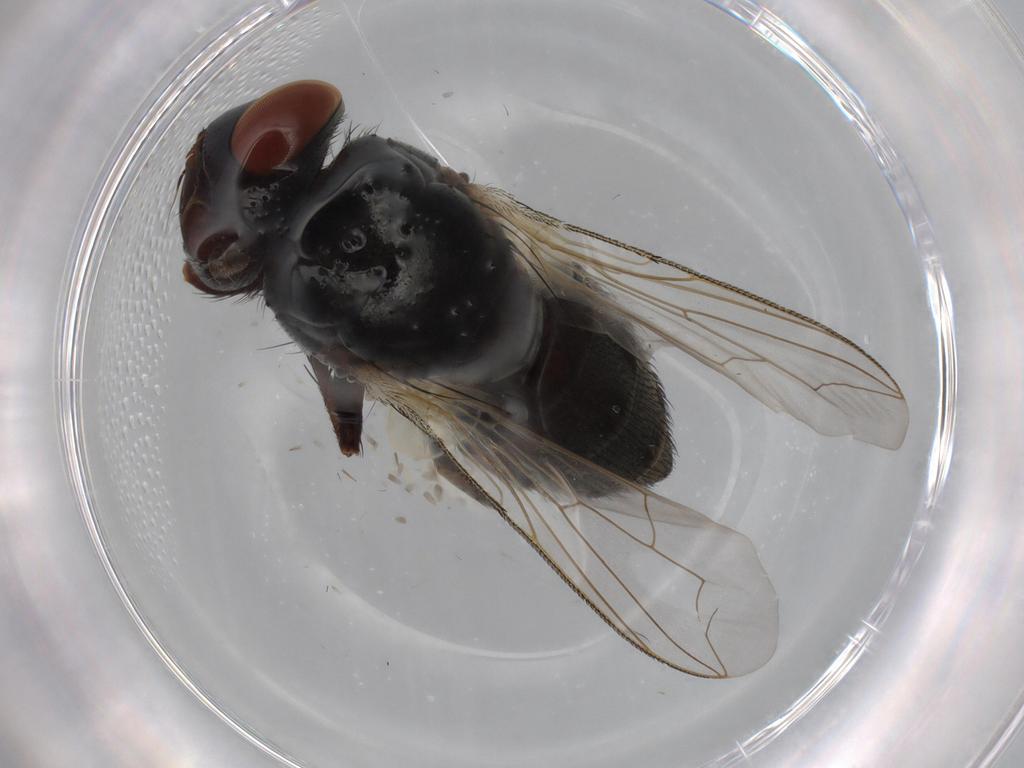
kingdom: Animalia
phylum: Arthropoda
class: Insecta
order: Diptera
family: Sarcophagidae
